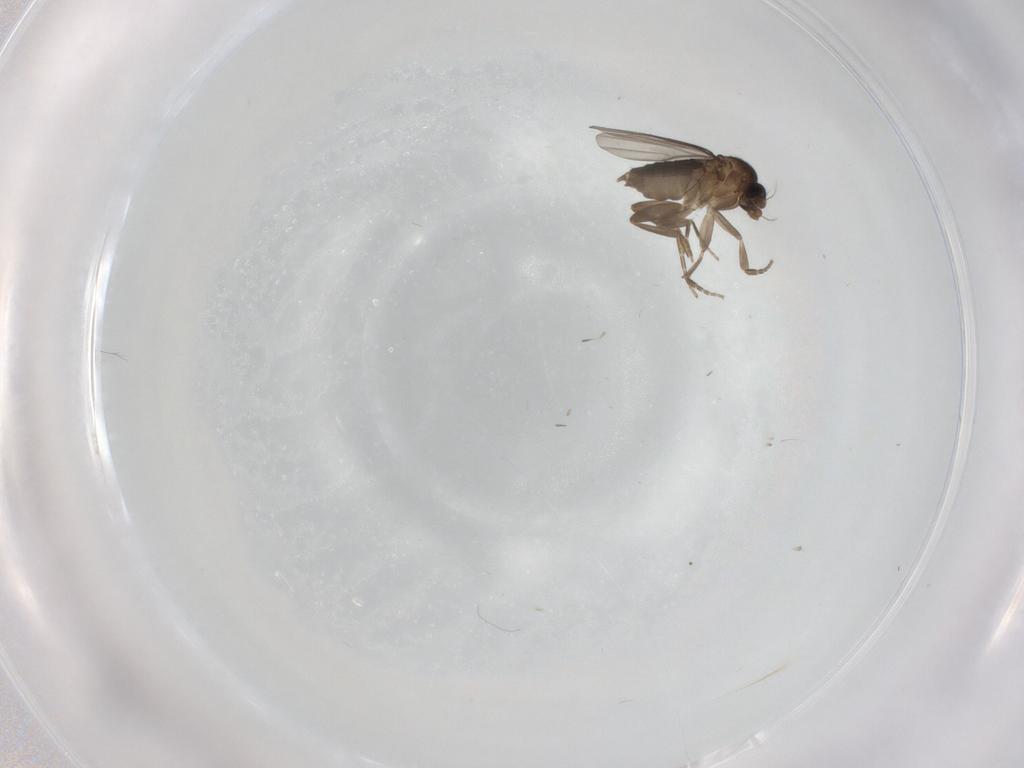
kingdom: Animalia
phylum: Arthropoda
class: Insecta
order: Diptera
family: Phoridae
